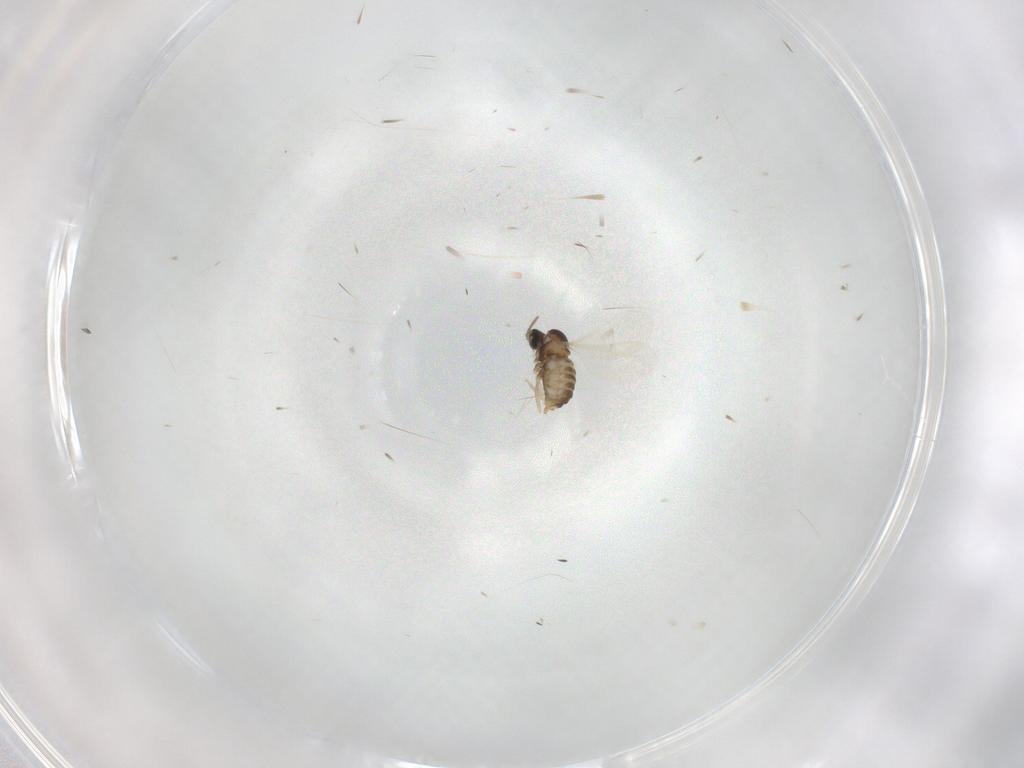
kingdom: Animalia
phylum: Arthropoda
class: Insecta
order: Diptera
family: Cecidomyiidae
